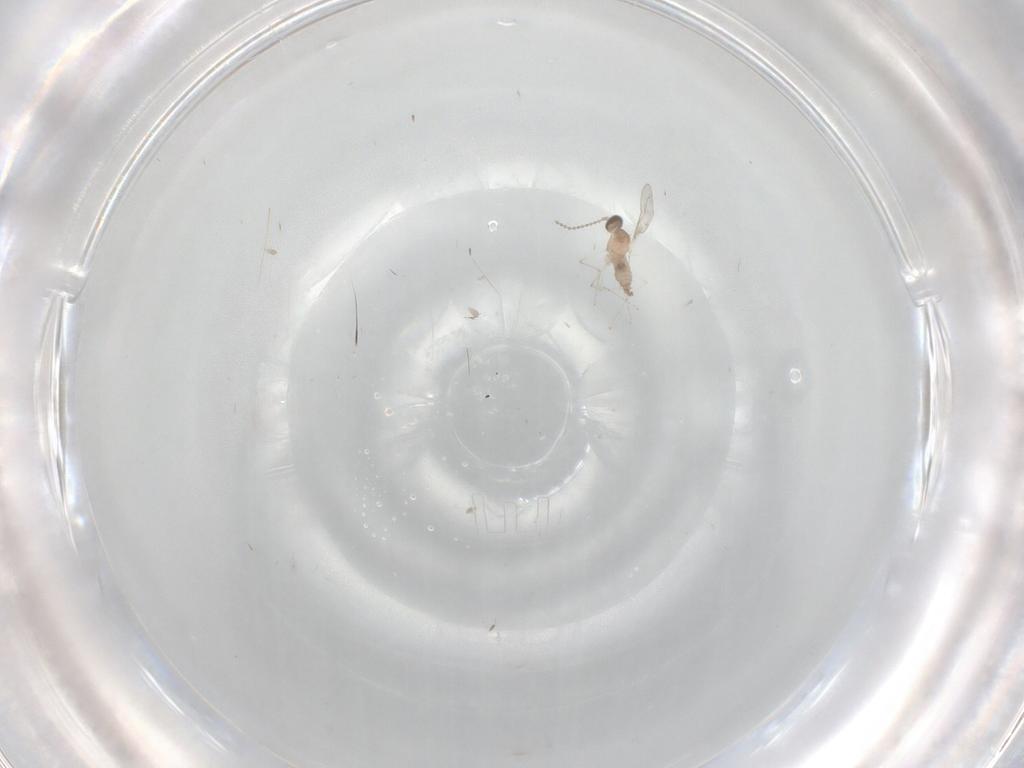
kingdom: Animalia
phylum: Arthropoda
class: Insecta
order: Diptera
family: Cecidomyiidae
